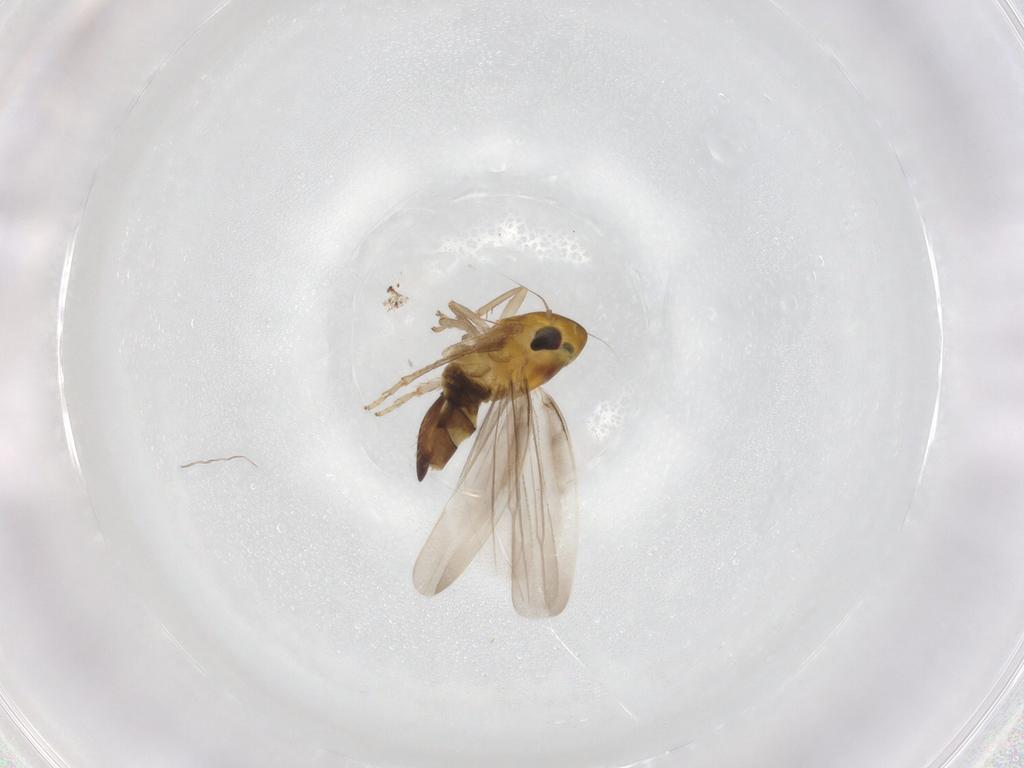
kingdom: Animalia
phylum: Arthropoda
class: Insecta
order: Hemiptera
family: Cicadellidae
